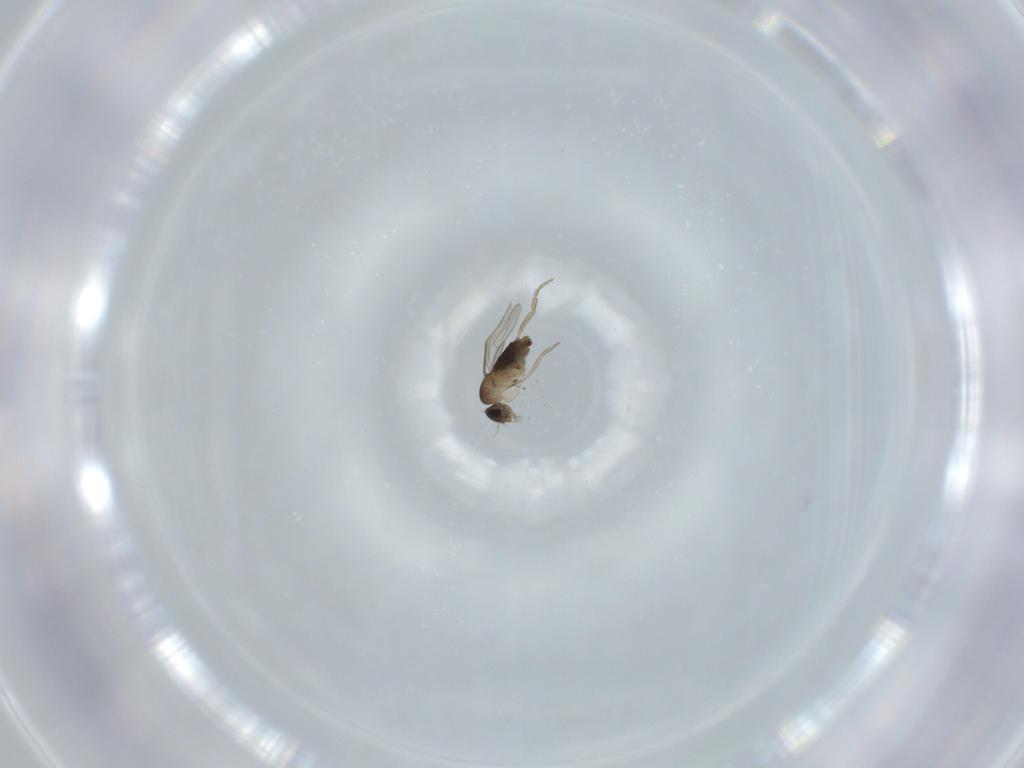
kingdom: Animalia
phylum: Arthropoda
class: Insecta
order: Diptera
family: Phoridae
